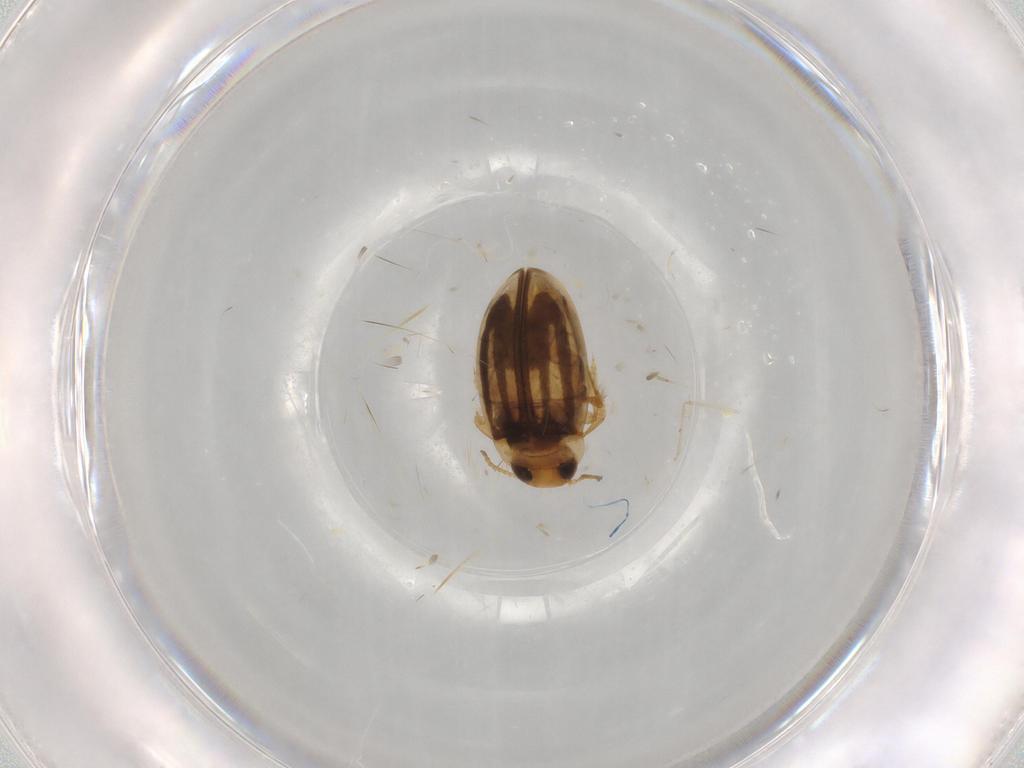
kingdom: Animalia
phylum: Arthropoda
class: Insecta
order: Coleoptera
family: Dytiscidae
